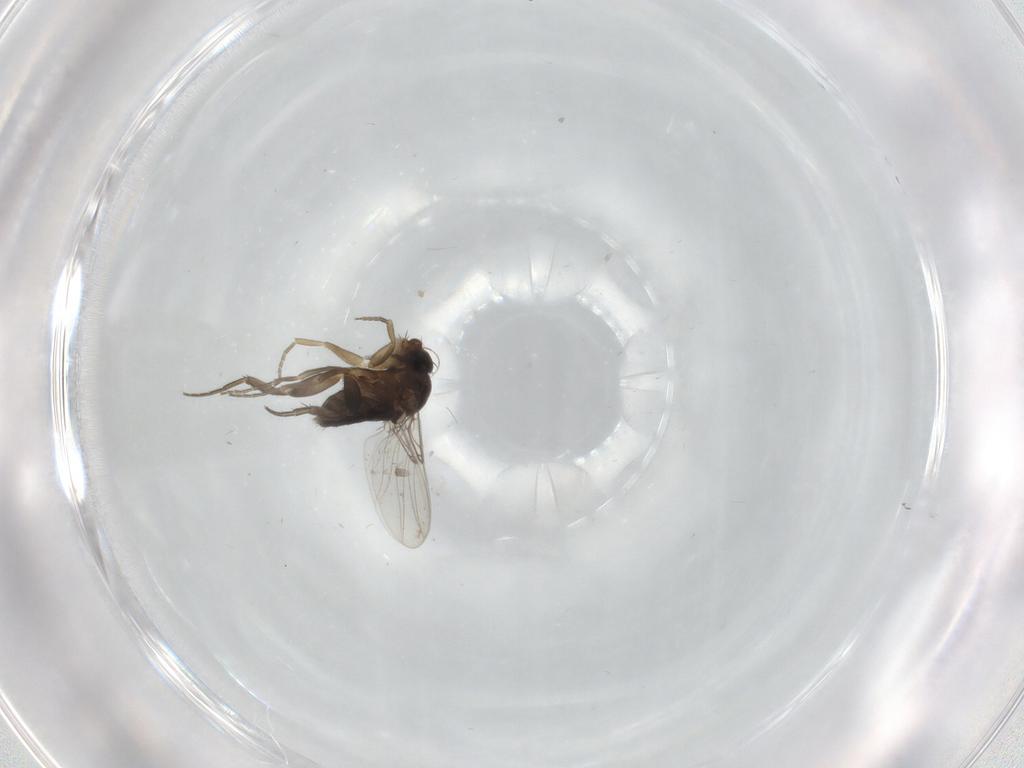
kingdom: Animalia
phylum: Arthropoda
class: Insecta
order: Diptera
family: Phoridae
